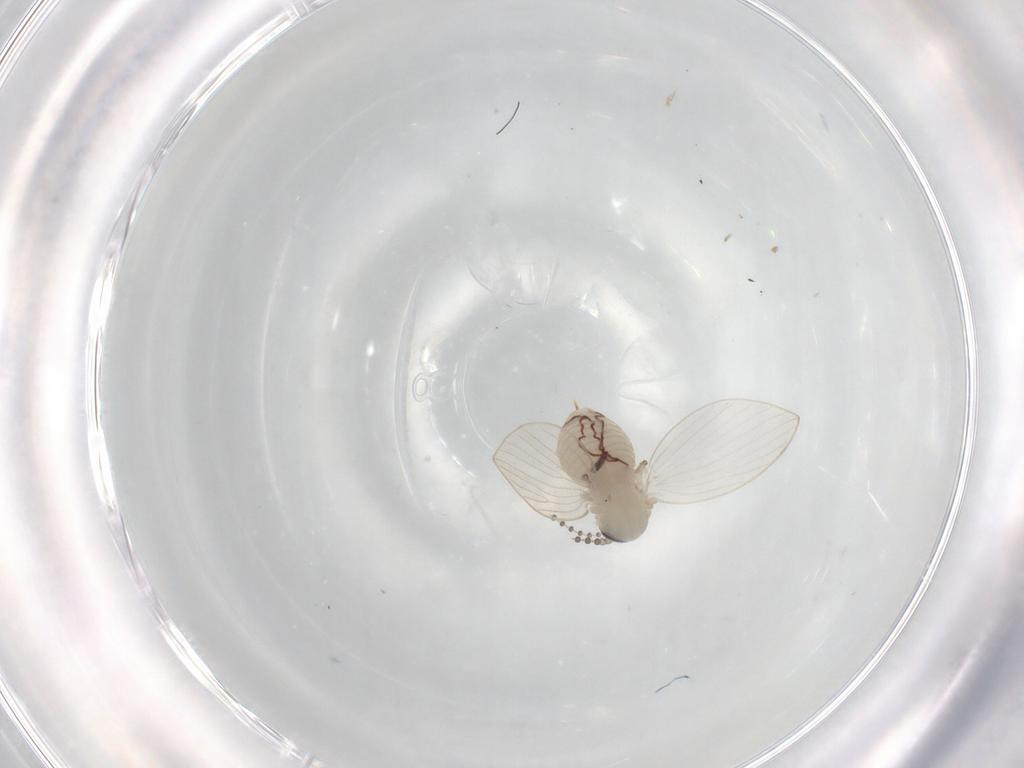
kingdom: Animalia
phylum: Arthropoda
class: Insecta
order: Diptera
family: Psychodidae
